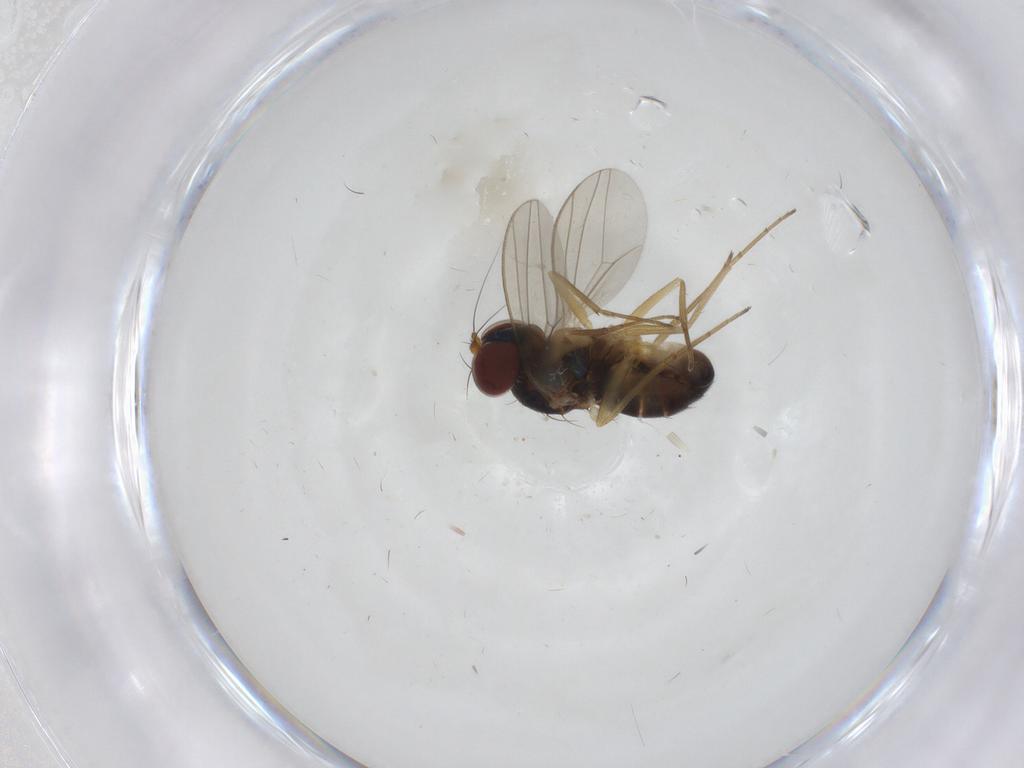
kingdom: Animalia
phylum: Arthropoda
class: Insecta
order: Diptera
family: Dolichopodidae
